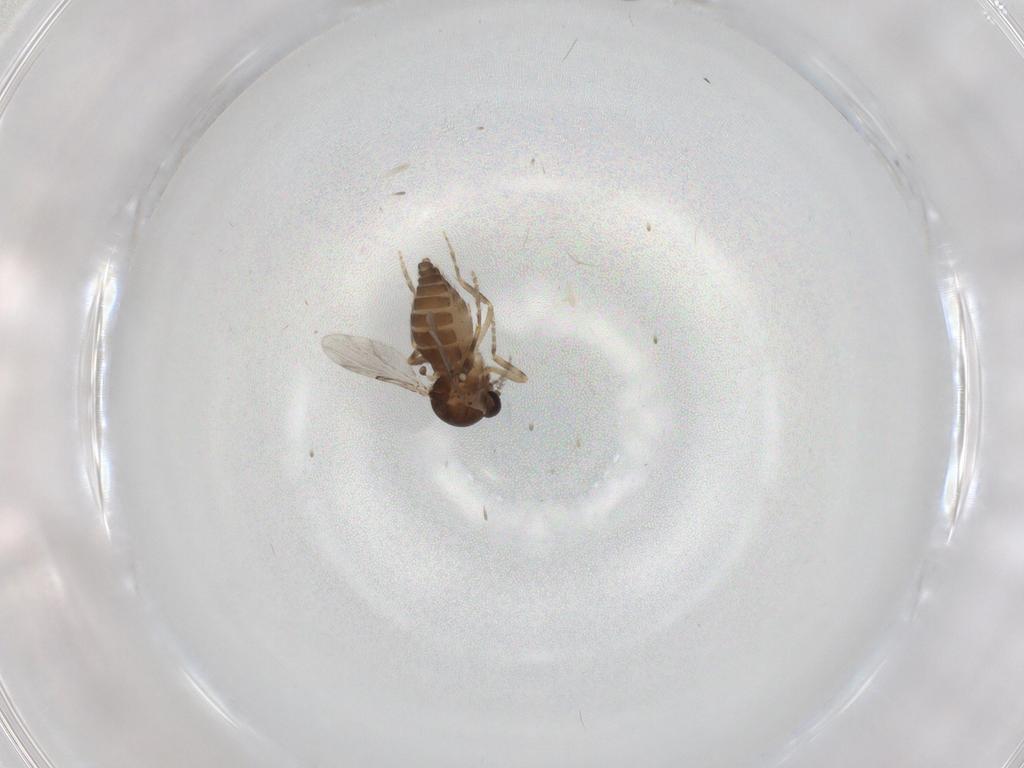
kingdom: Animalia
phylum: Arthropoda
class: Insecta
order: Diptera
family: Ceratopogonidae
